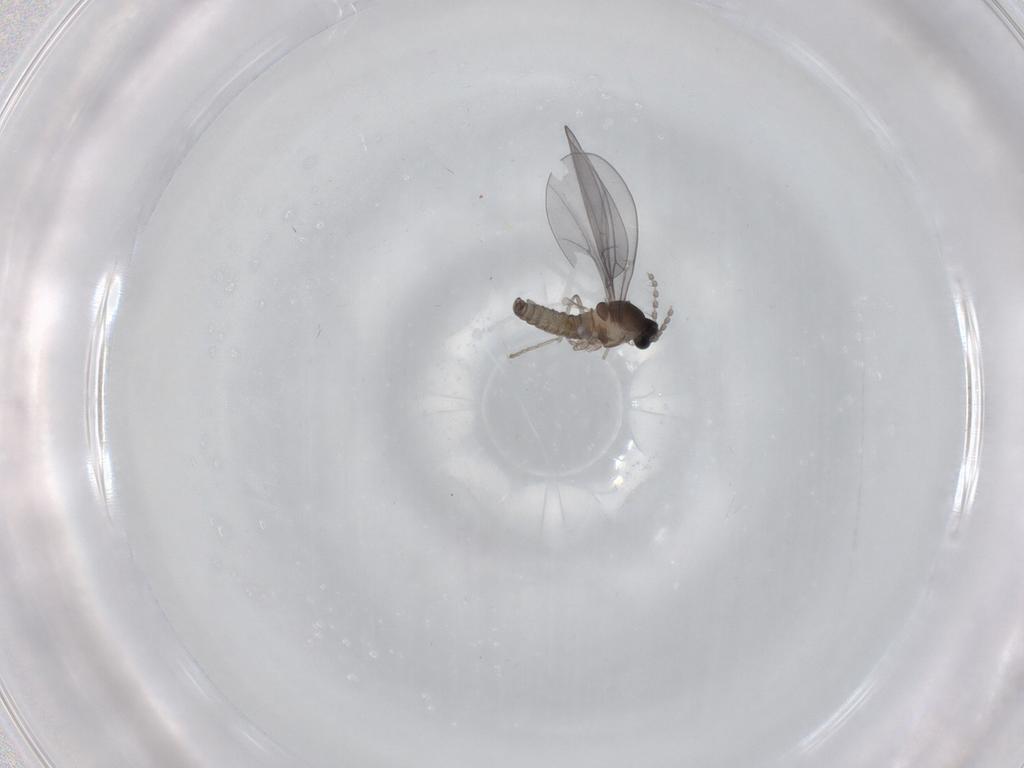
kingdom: Animalia
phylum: Arthropoda
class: Insecta
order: Diptera
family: Cecidomyiidae
